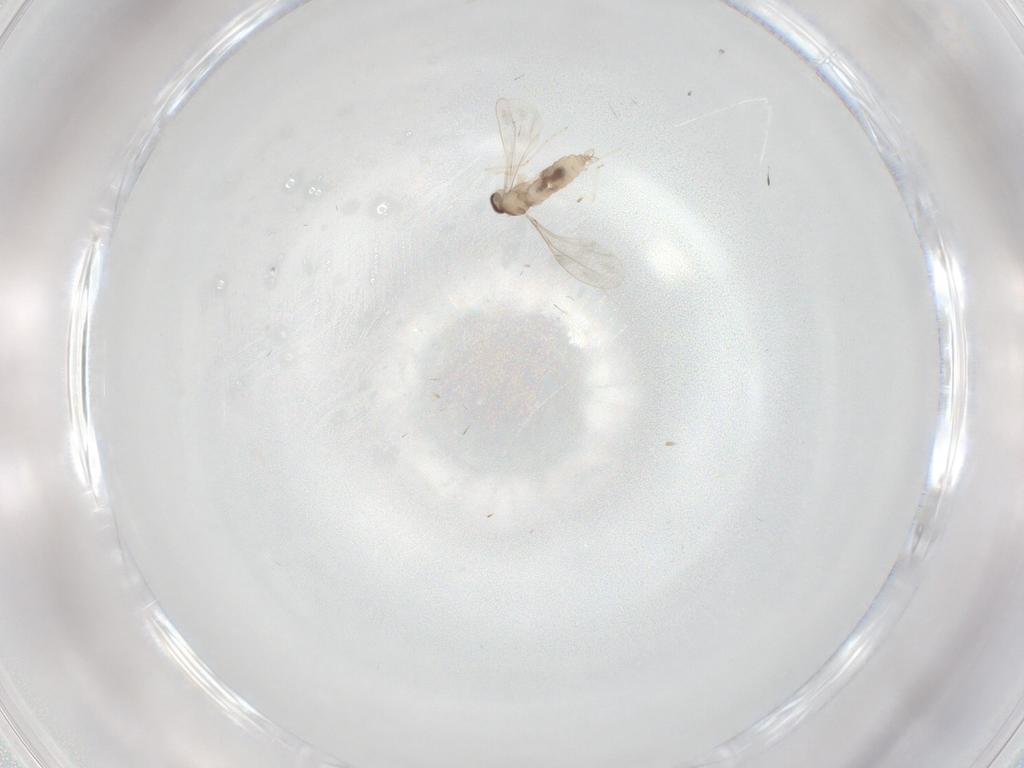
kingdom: Animalia
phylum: Arthropoda
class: Insecta
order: Diptera
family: Cecidomyiidae
